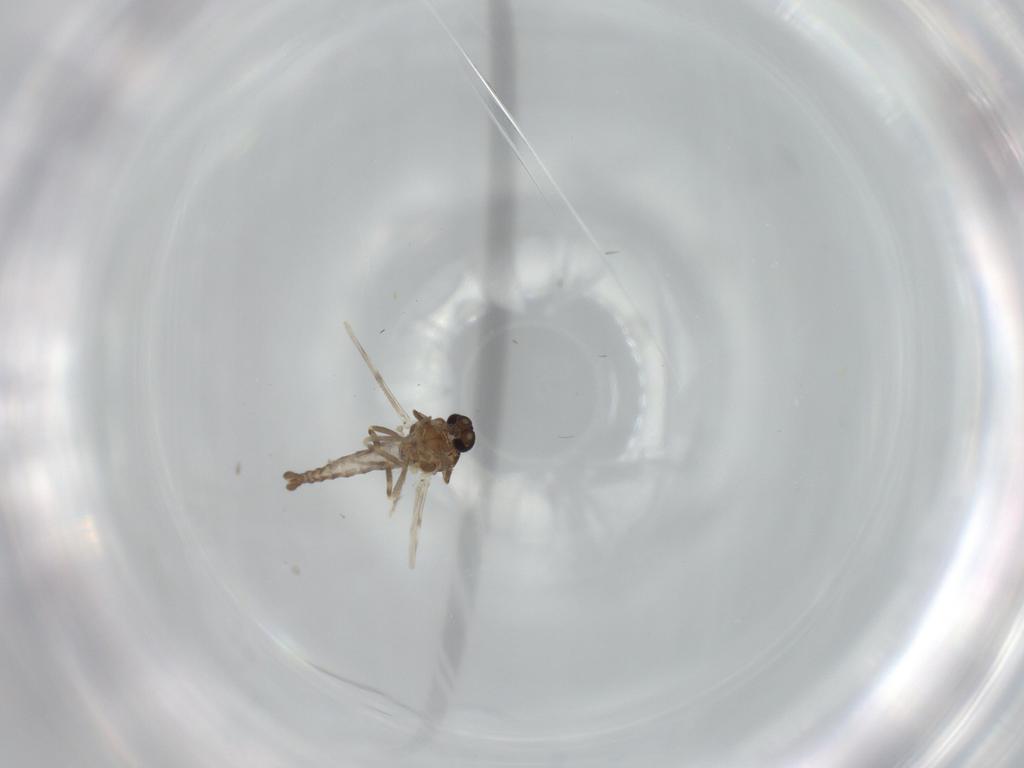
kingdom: Animalia
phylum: Arthropoda
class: Insecta
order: Diptera
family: Ceratopogonidae
